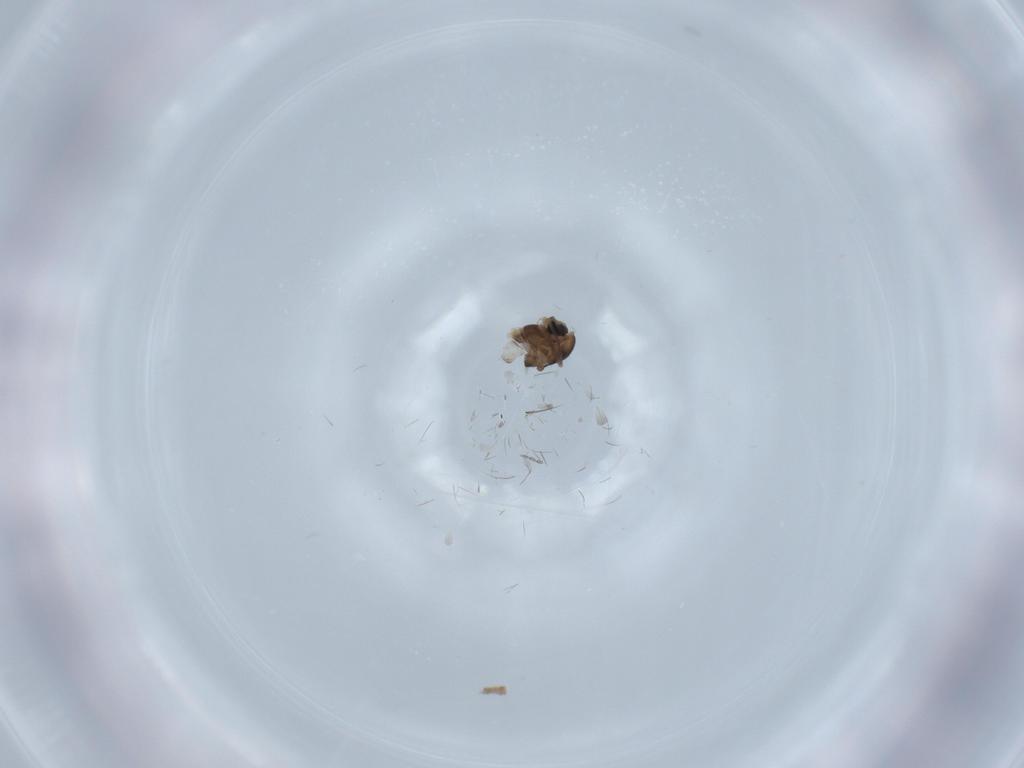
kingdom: Animalia
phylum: Arthropoda
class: Insecta
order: Diptera
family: Chironomidae
